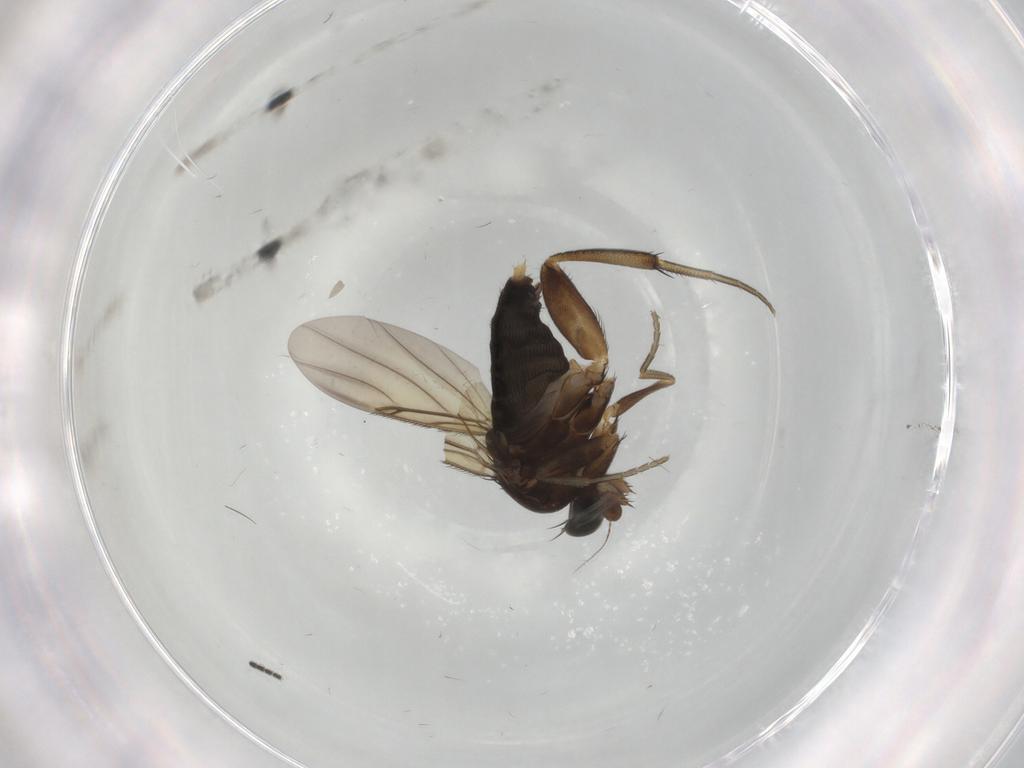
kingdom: Animalia
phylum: Arthropoda
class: Insecta
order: Diptera
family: Phoridae
